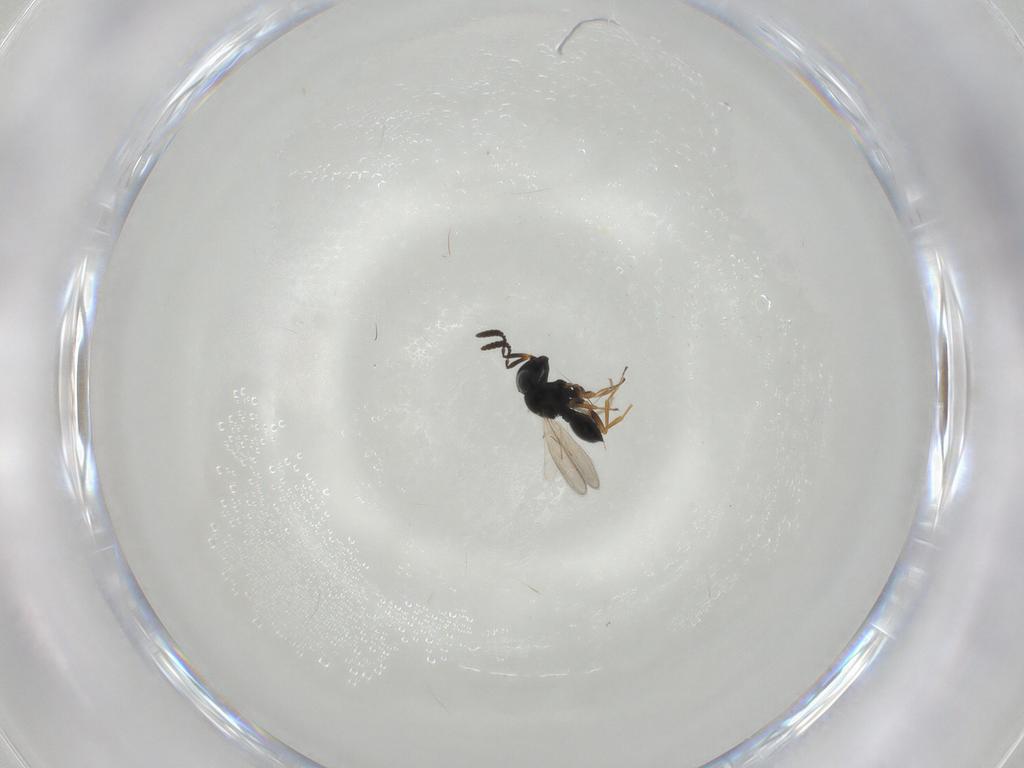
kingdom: Animalia
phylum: Arthropoda
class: Insecta
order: Hymenoptera
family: Scelionidae
